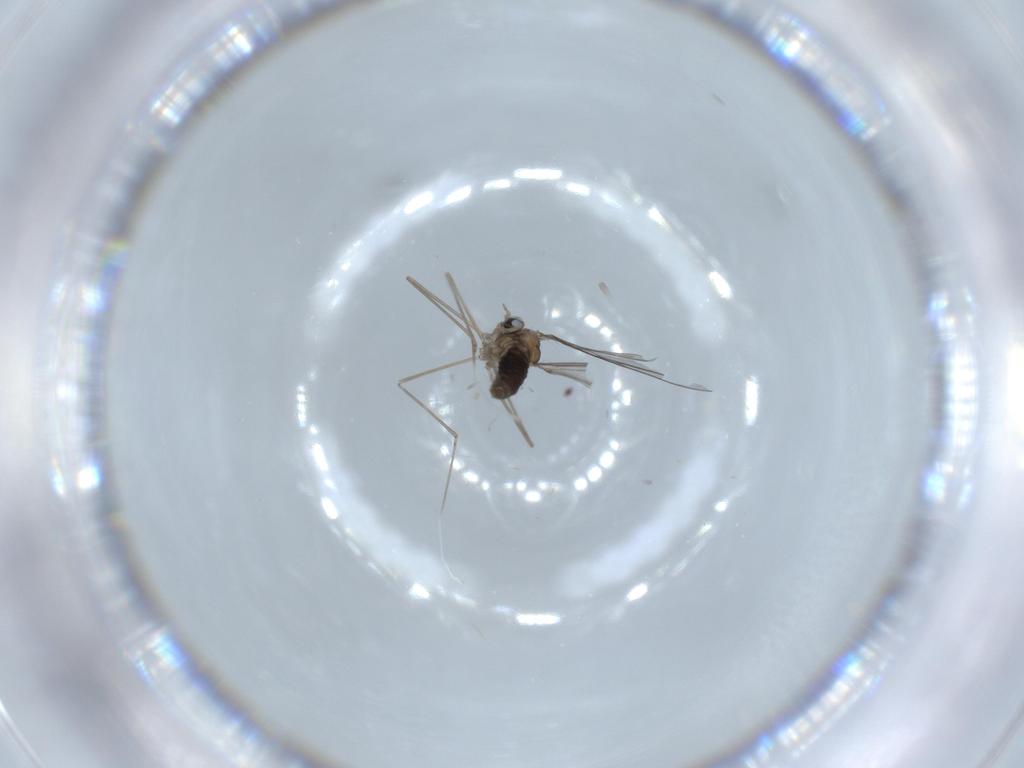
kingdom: Animalia
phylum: Arthropoda
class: Insecta
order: Diptera
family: Cecidomyiidae
